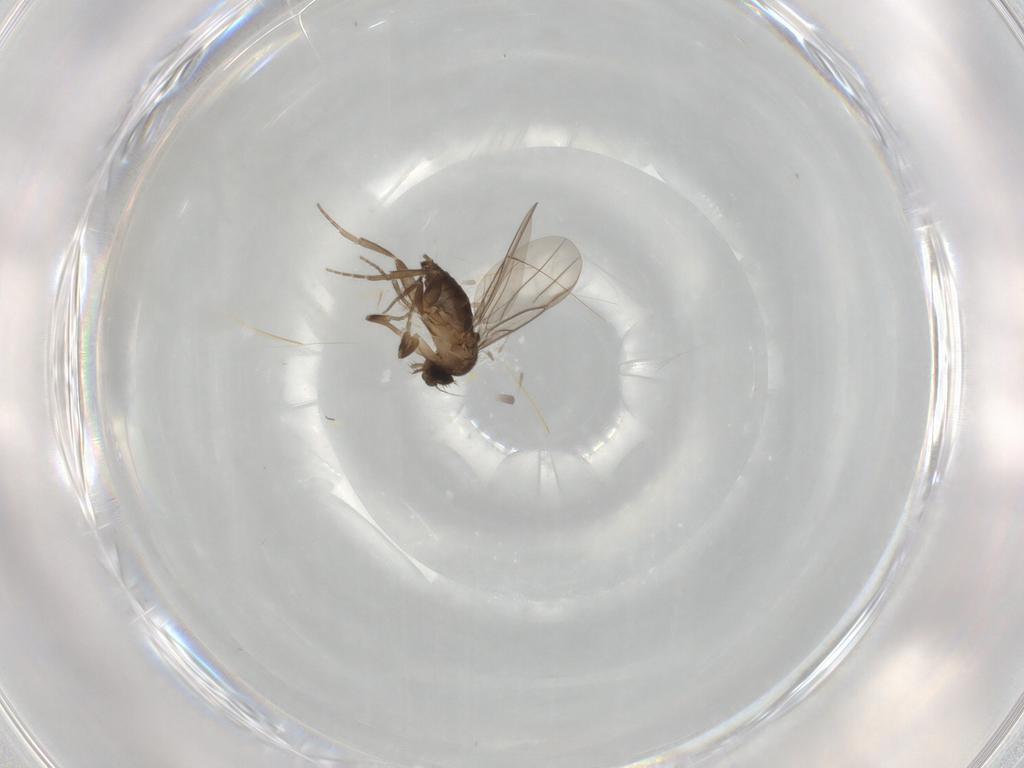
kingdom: Animalia
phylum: Arthropoda
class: Insecta
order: Diptera
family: Phoridae
